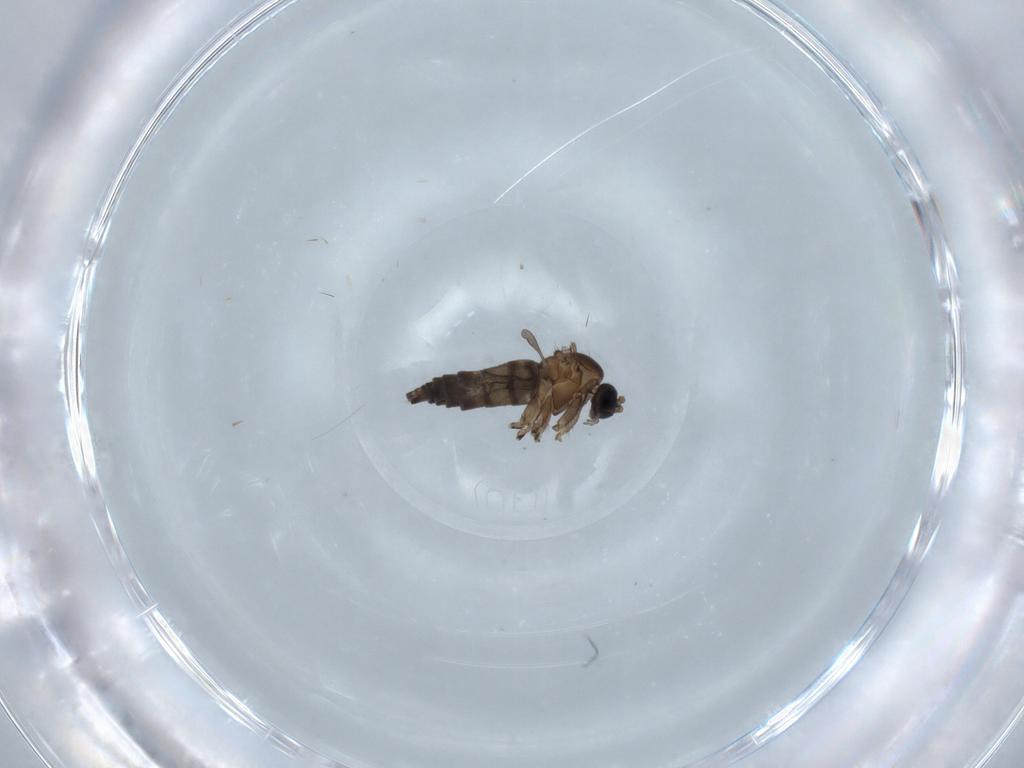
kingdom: Animalia
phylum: Arthropoda
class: Insecta
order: Diptera
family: Sciaridae
